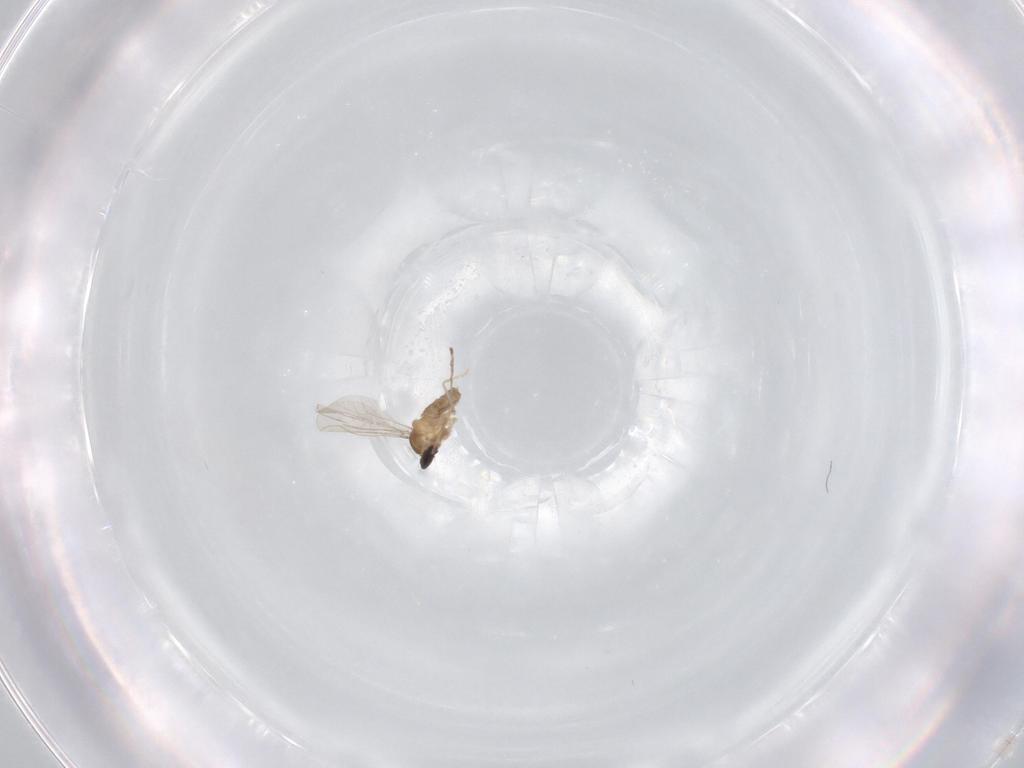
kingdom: Animalia
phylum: Arthropoda
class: Insecta
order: Diptera
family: Cecidomyiidae
